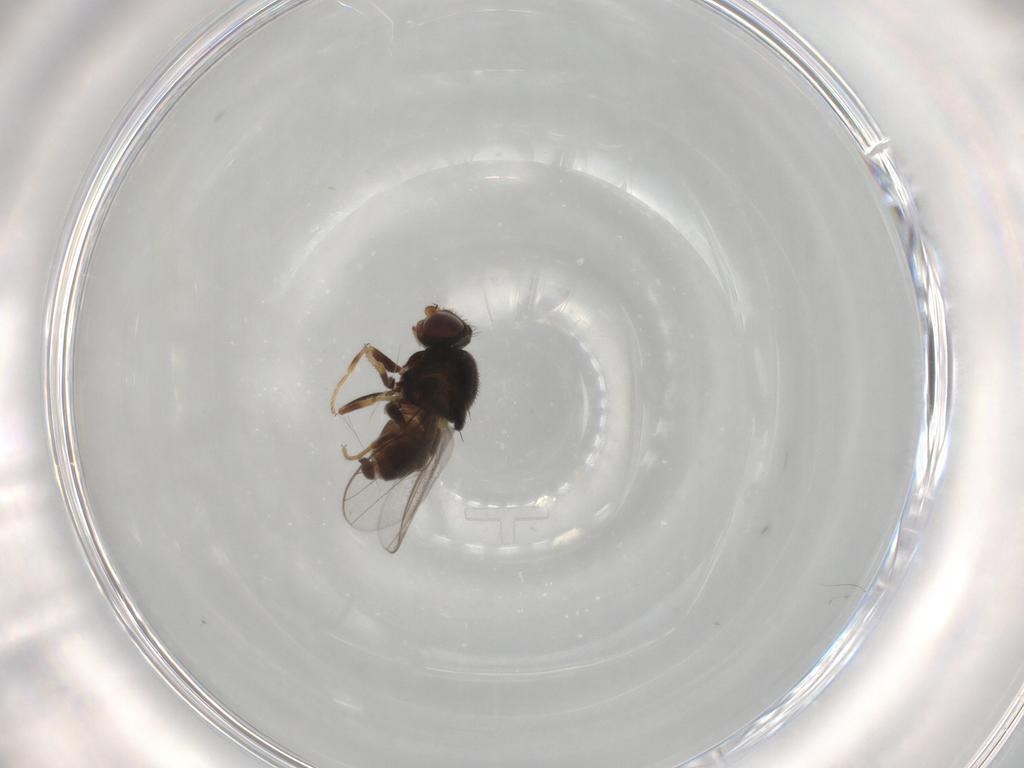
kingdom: Animalia
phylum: Arthropoda
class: Insecta
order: Diptera
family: Chloropidae
